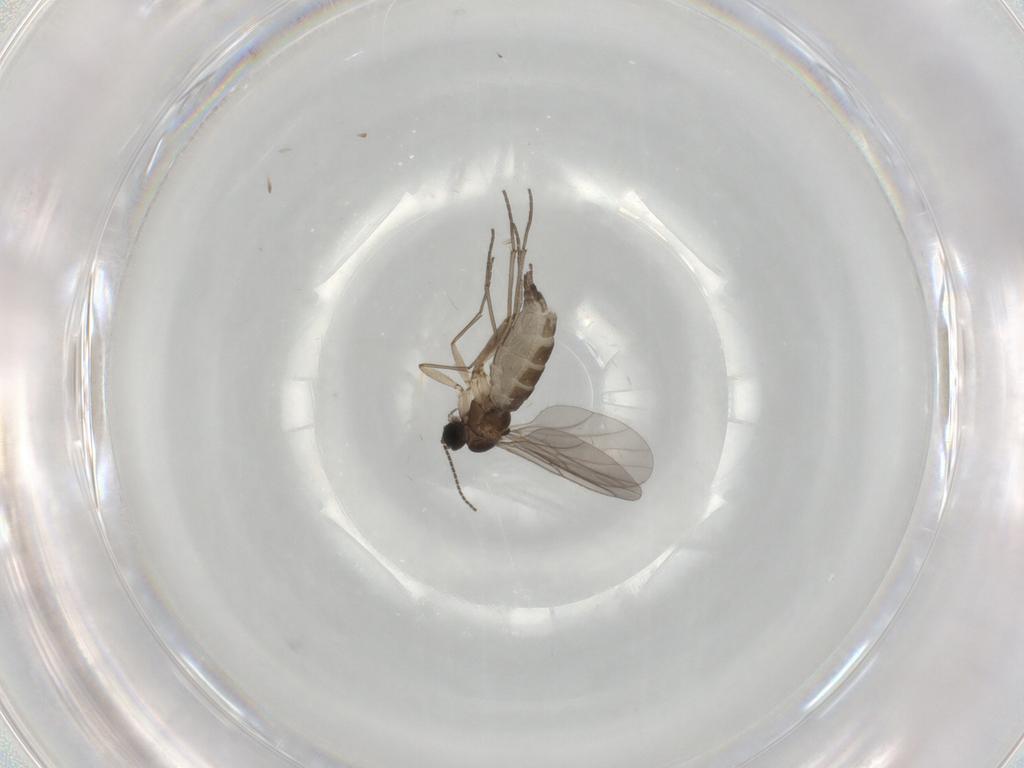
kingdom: Animalia
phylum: Arthropoda
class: Insecta
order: Diptera
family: Sciaridae
